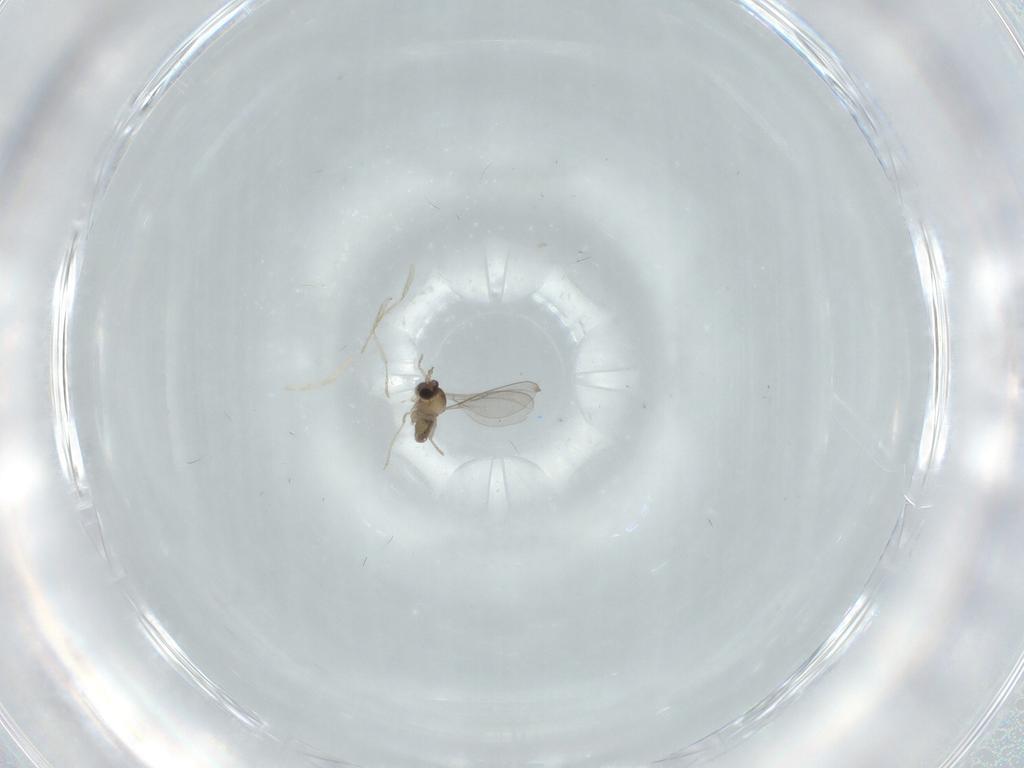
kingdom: Animalia
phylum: Arthropoda
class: Insecta
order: Diptera
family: Cecidomyiidae
